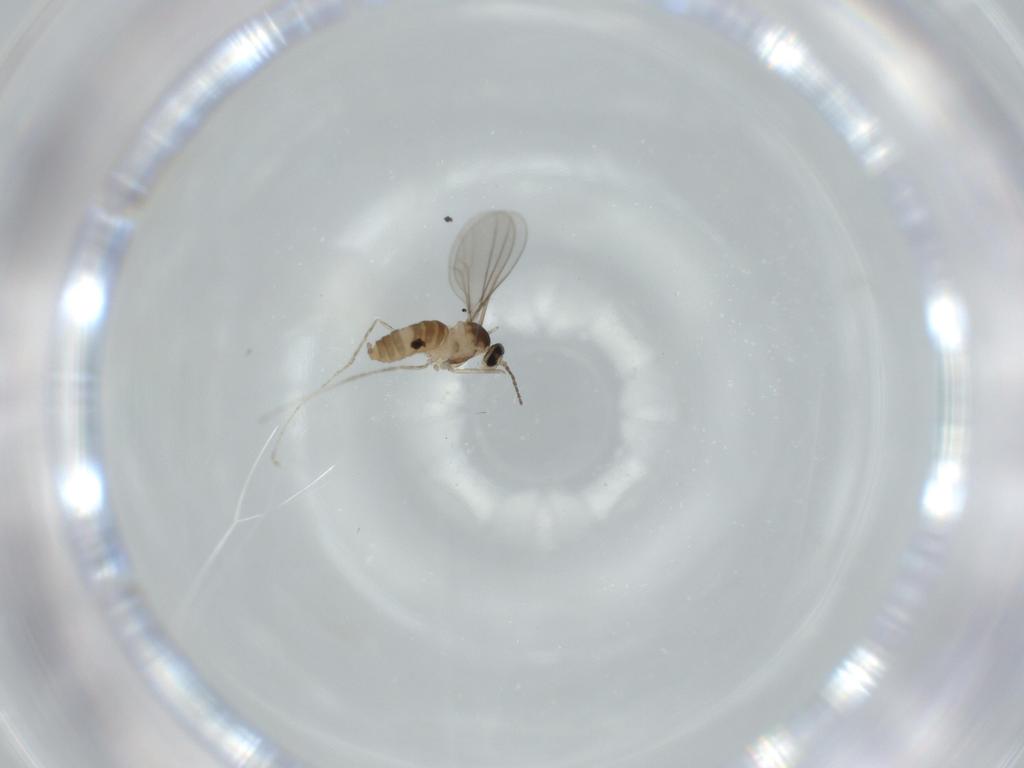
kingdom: Animalia
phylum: Arthropoda
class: Insecta
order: Diptera
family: Cecidomyiidae
